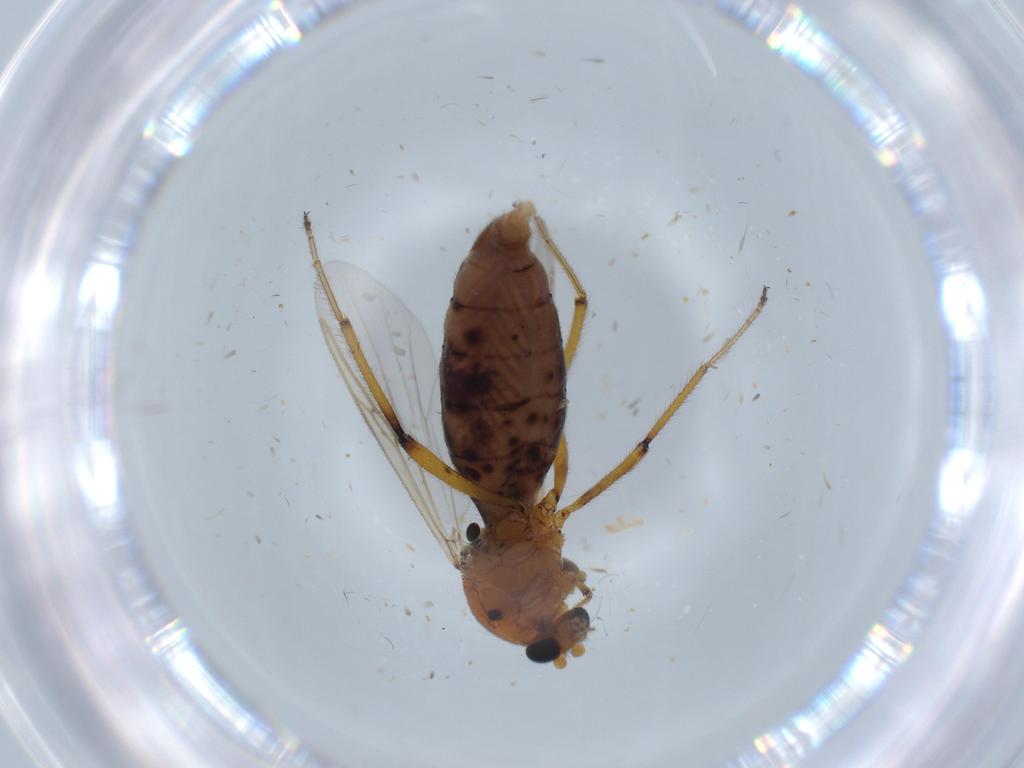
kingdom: Animalia
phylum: Arthropoda
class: Insecta
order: Diptera
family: Ceratopogonidae
